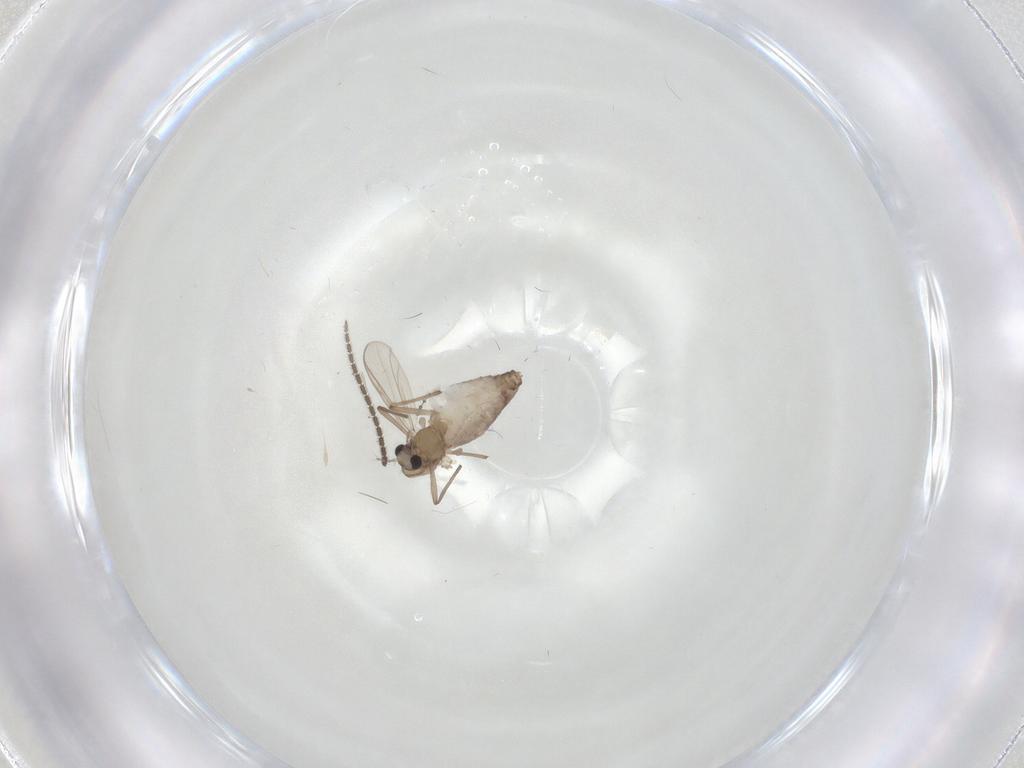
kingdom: Animalia
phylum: Arthropoda
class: Insecta
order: Diptera
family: Chironomidae
